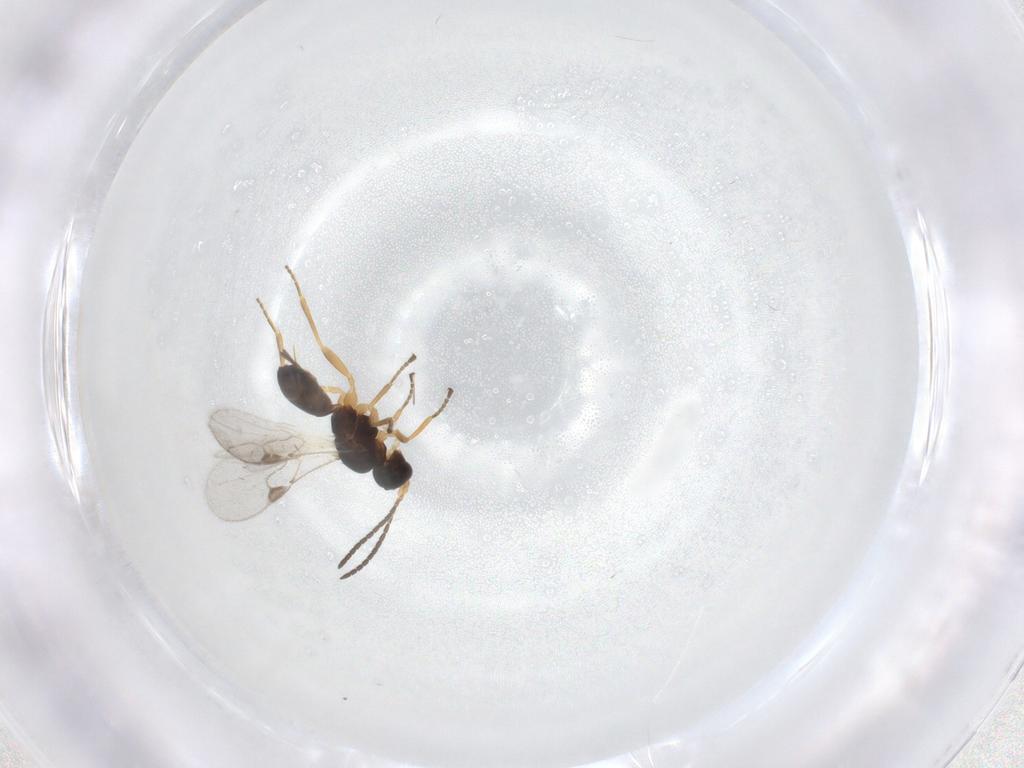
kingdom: Animalia
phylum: Arthropoda
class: Insecta
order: Hymenoptera
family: Braconidae
